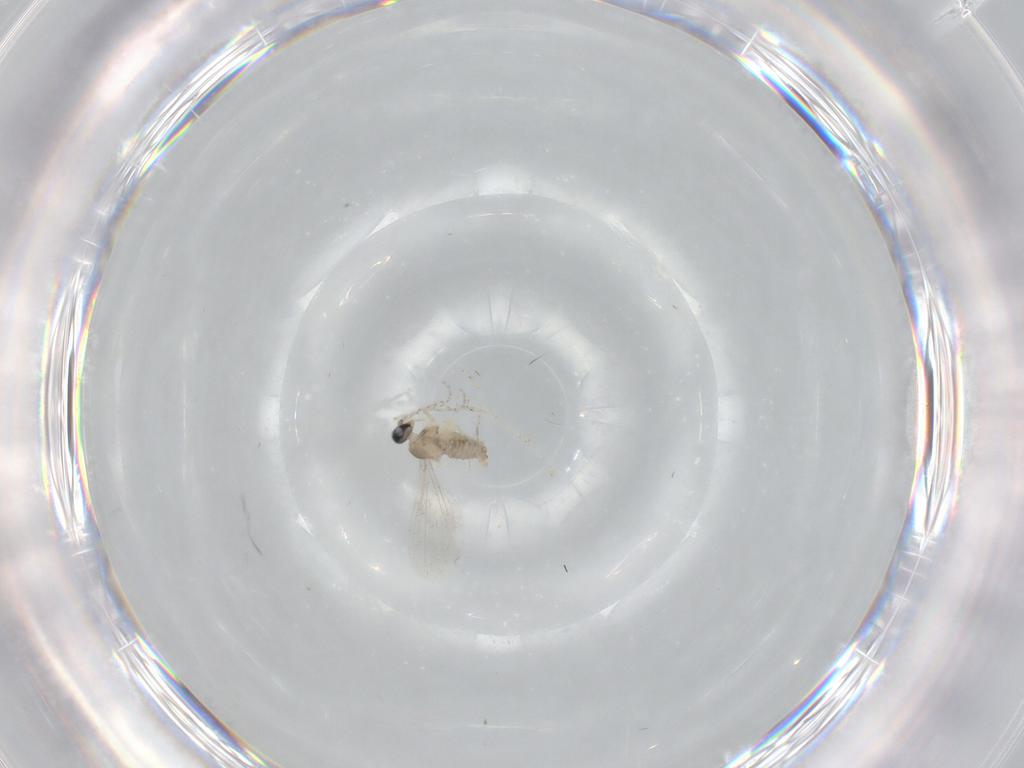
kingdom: Animalia
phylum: Arthropoda
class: Insecta
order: Diptera
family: Cecidomyiidae
